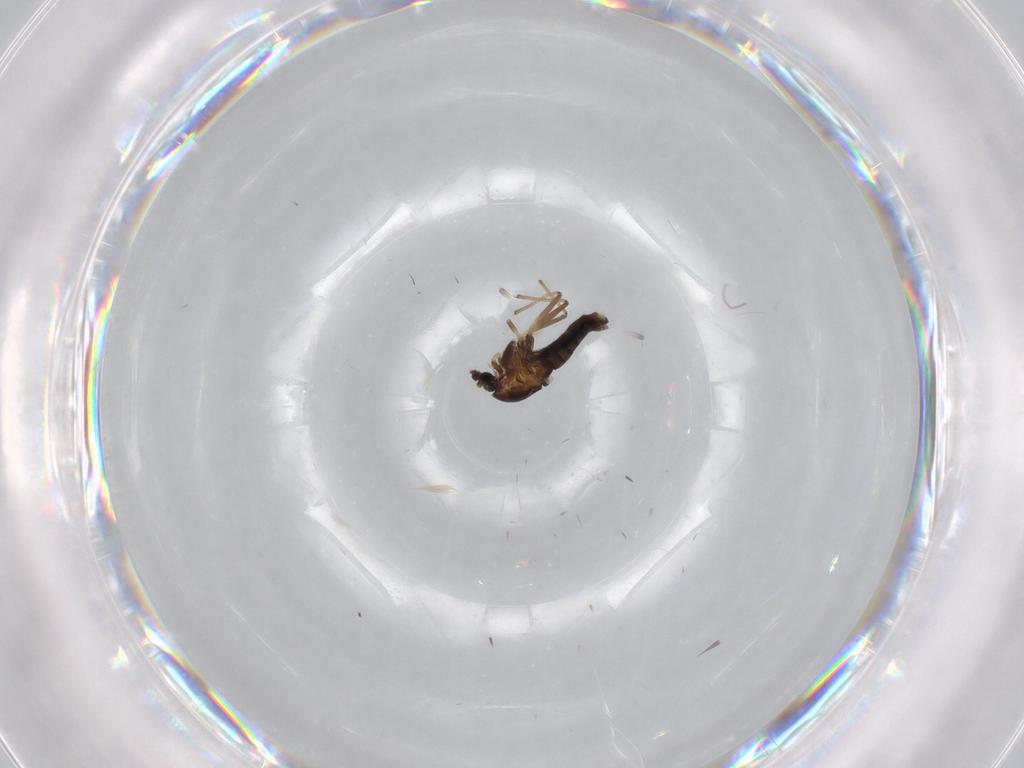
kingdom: Animalia
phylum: Arthropoda
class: Insecta
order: Diptera
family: Chironomidae
